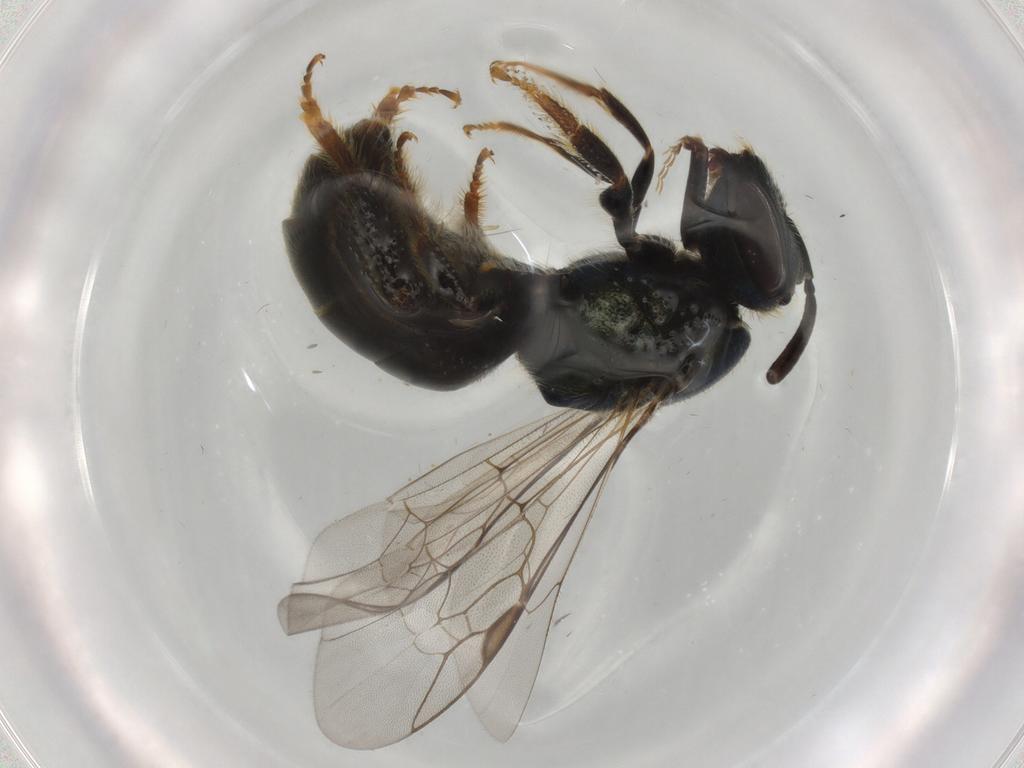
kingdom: Animalia
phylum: Arthropoda
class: Insecta
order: Hymenoptera
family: Halictidae
